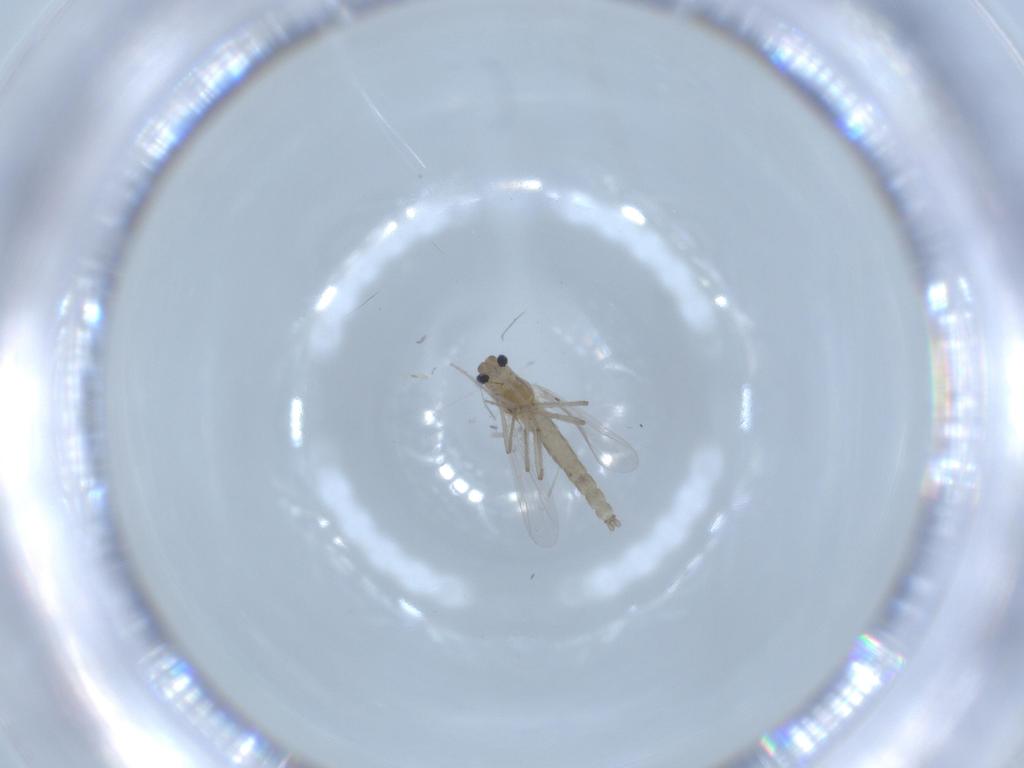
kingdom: Animalia
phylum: Arthropoda
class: Insecta
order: Diptera
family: Chironomidae
